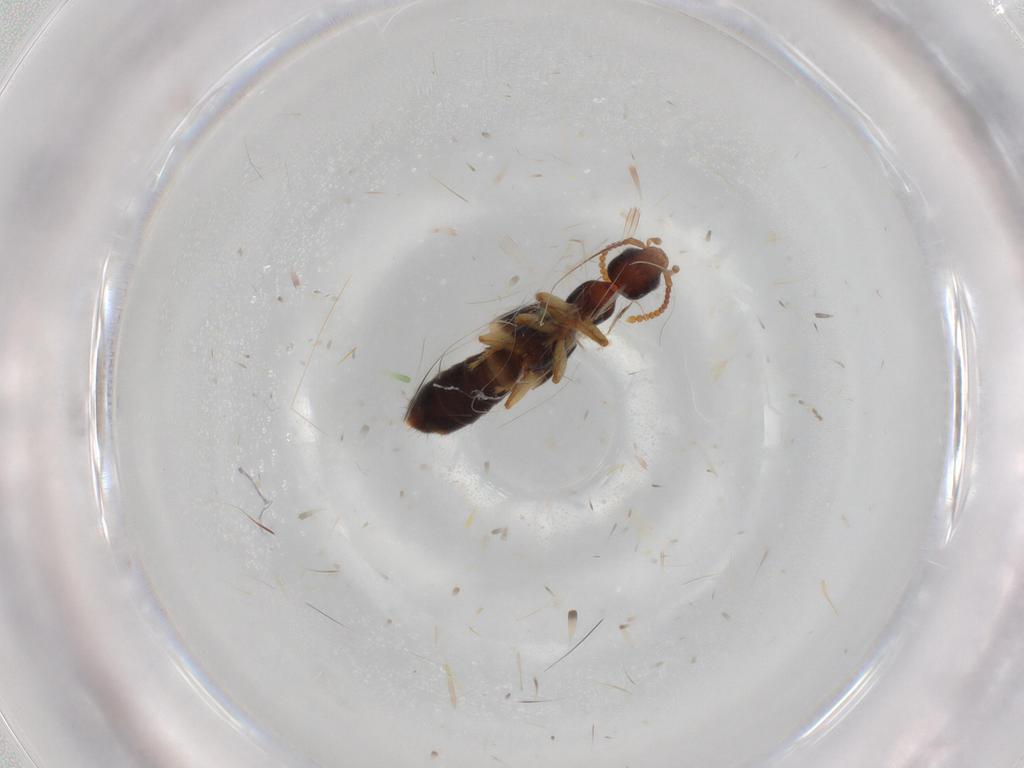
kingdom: Animalia
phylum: Arthropoda
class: Insecta
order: Coleoptera
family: Staphylinidae
